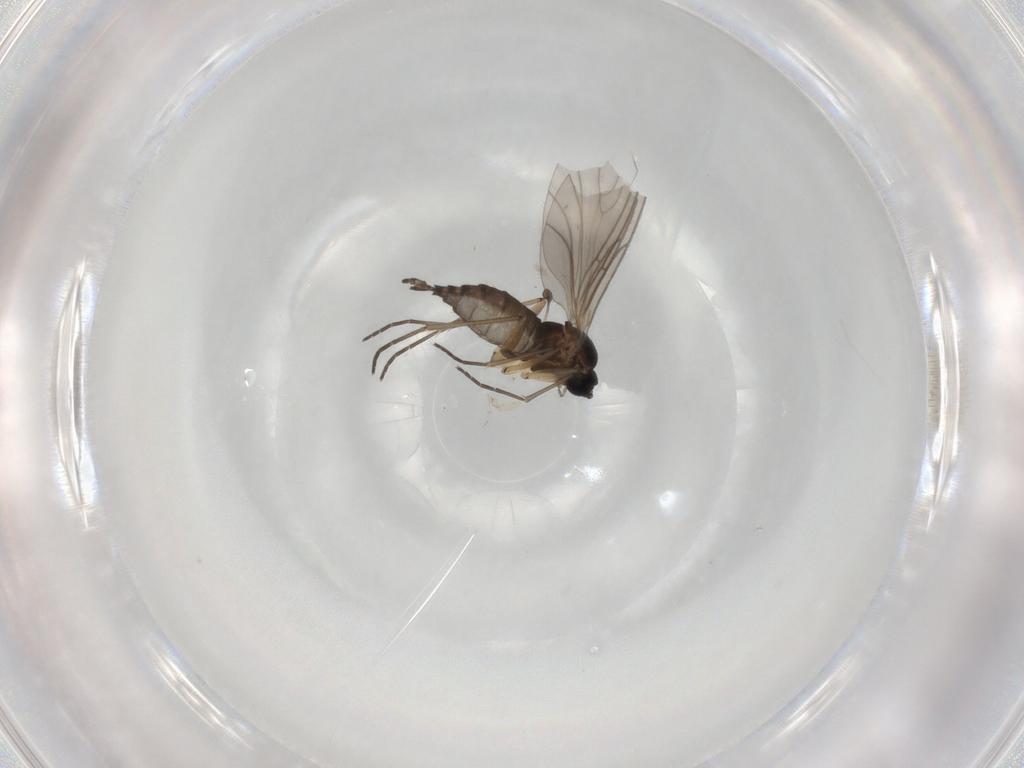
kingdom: Animalia
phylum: Arthropoda
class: Insecta
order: Diptera
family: Sciaridae
